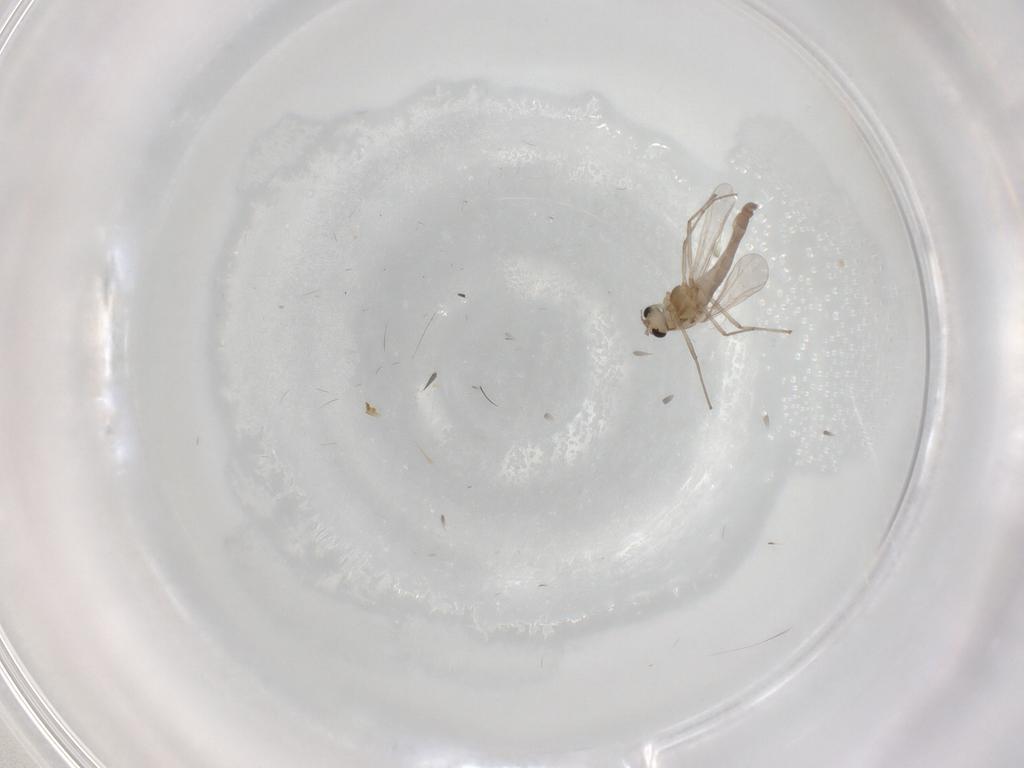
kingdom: Animalia
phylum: Arthropoda
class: Insecta
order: Diptera
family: Chironomidae
